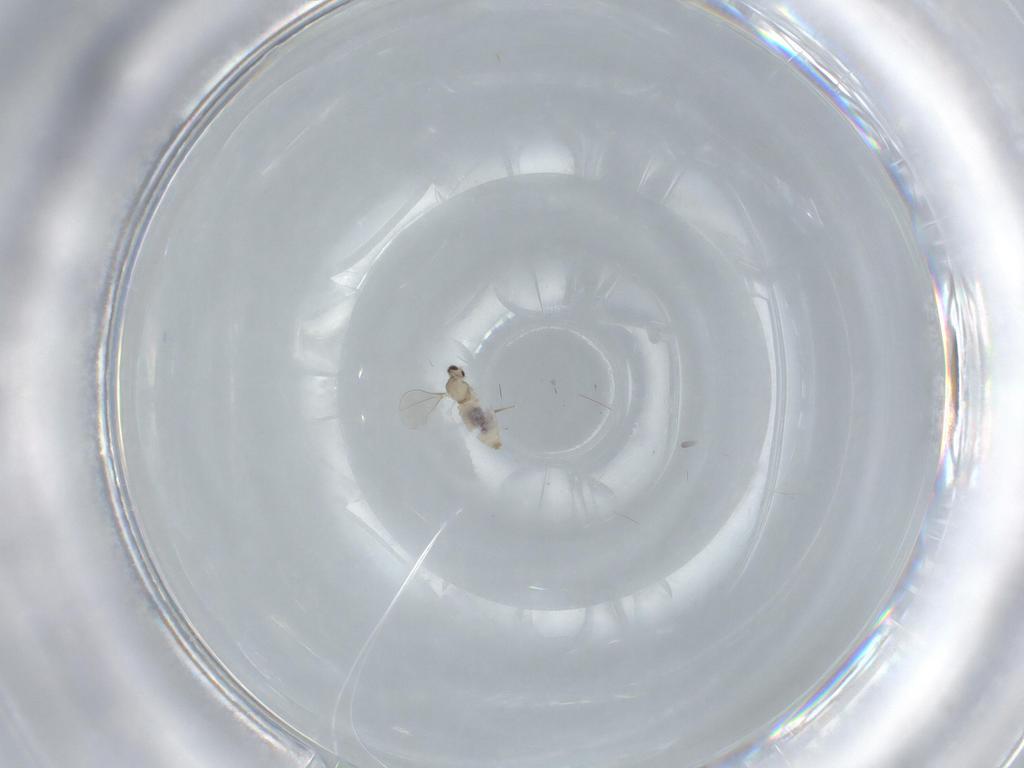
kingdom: Animalia
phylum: Arthropoda
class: Insecta
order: Diptera
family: Cecidomyiidae
